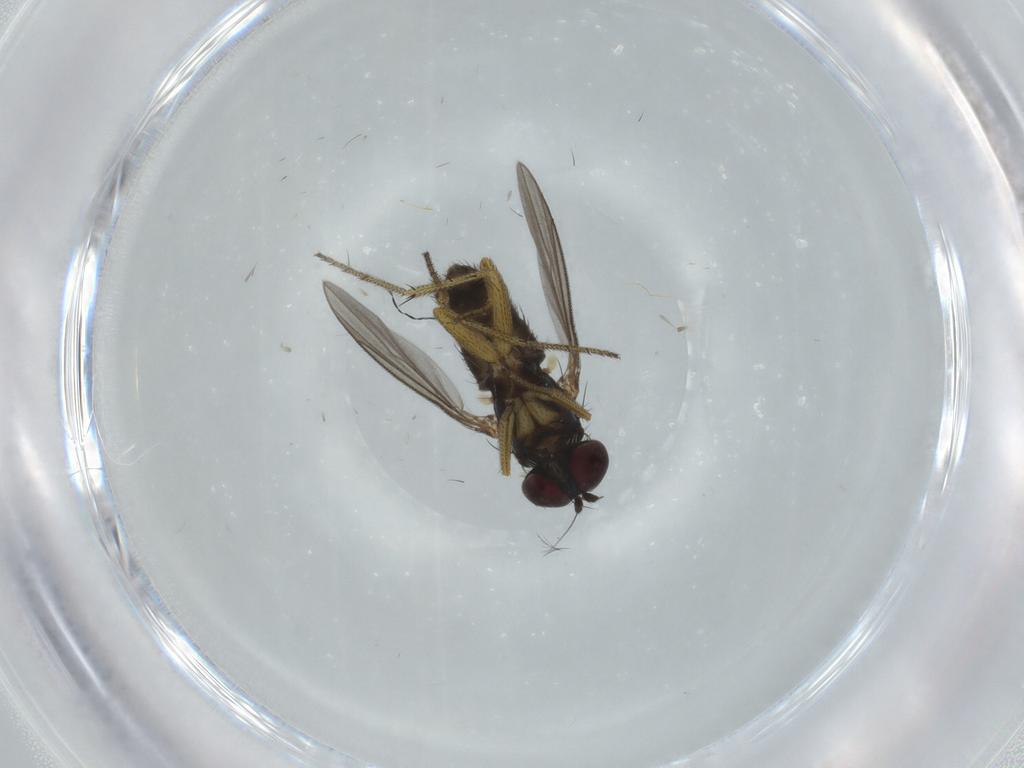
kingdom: Animalia
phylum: Arthropoda
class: Insecta
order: Diptera
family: Dolichopodidae
